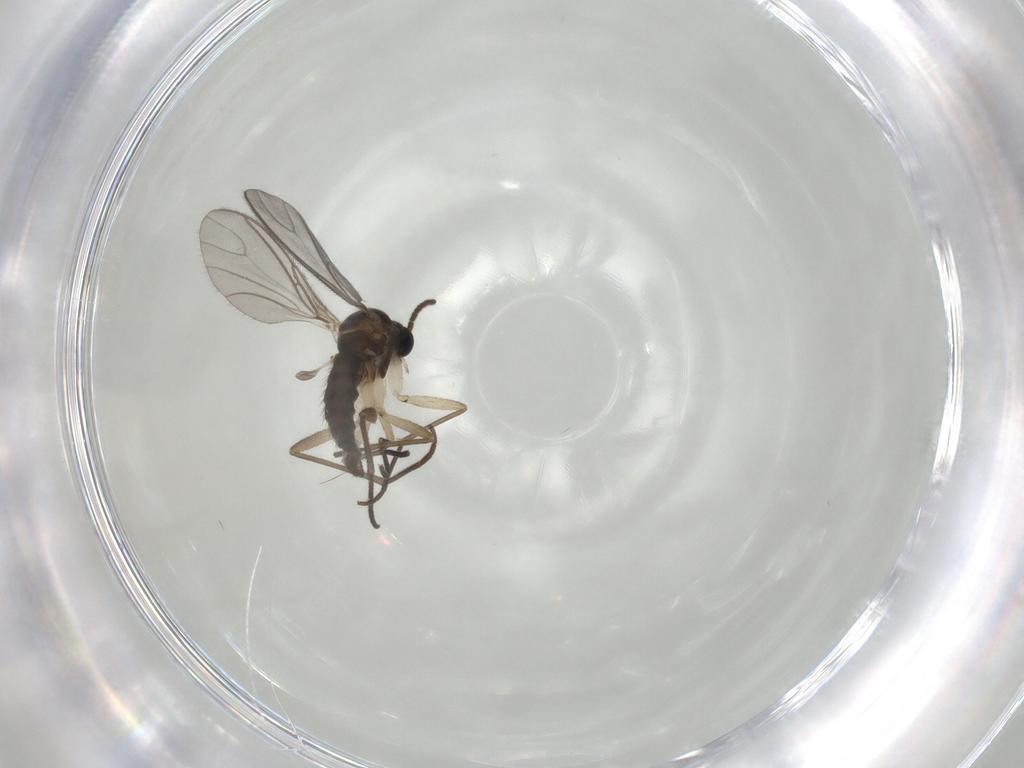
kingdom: Animalia
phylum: Arthropoda
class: Insecta
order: Diptera
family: Sciaridae
